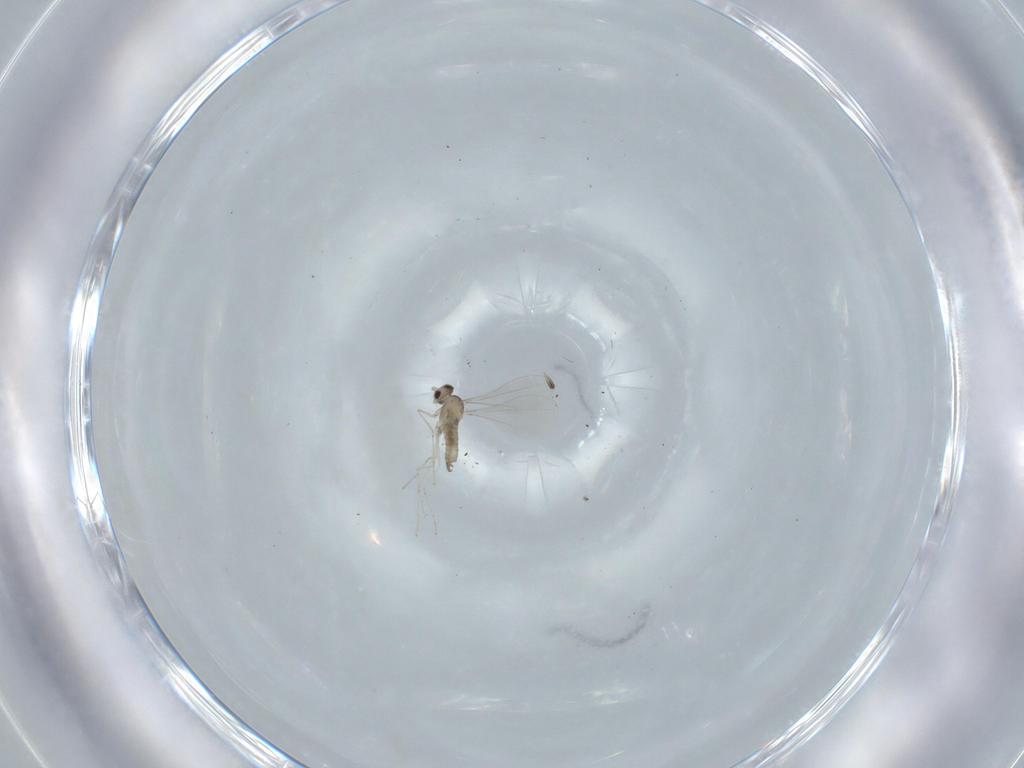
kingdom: Animalia
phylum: Arthropoda
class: Insecta
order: Diptera
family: Cecidomyiidae
